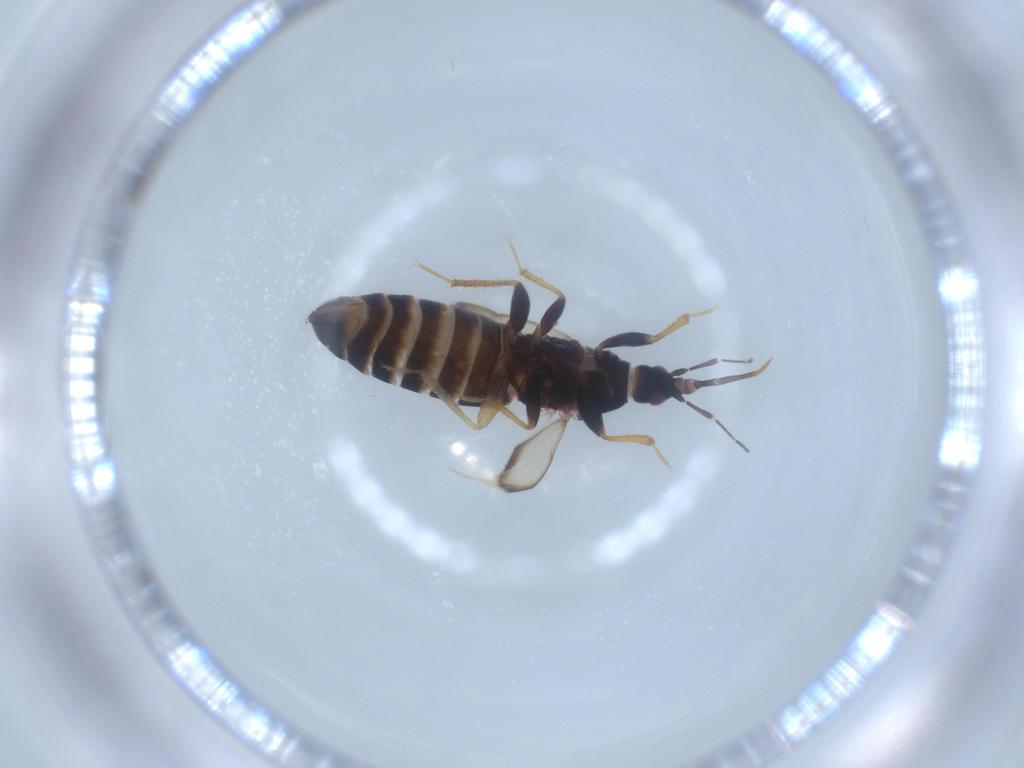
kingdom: Animalia
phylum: Arthropoda
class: Insecta
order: Hemiptera
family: Anthocoridae
